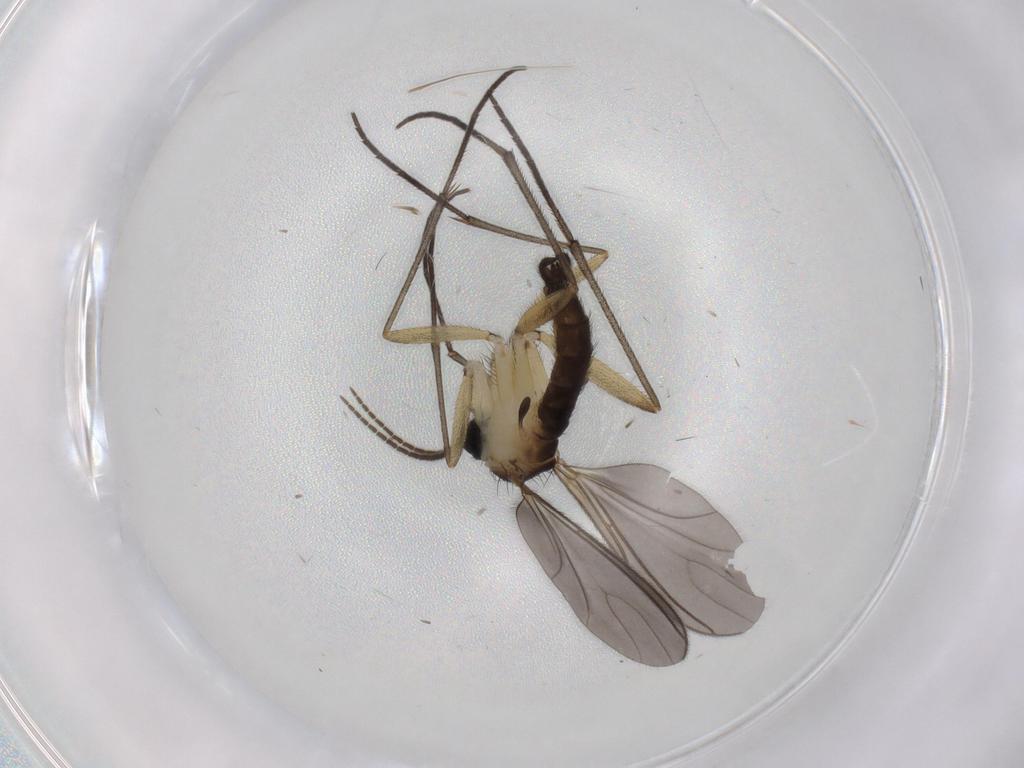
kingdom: Animalia
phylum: Arthropoda
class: Insecta
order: Diptera
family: Sciaridae
